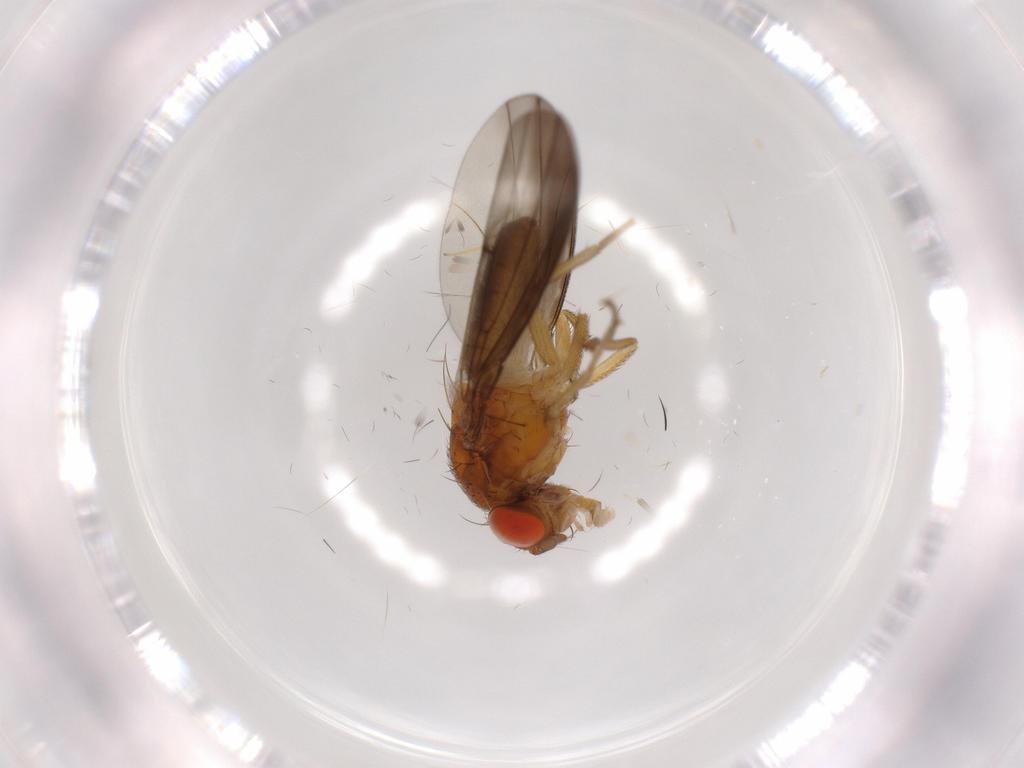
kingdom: Animalia
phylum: Arthropoda
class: Insecta
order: Diptera
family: Drosophilidae
